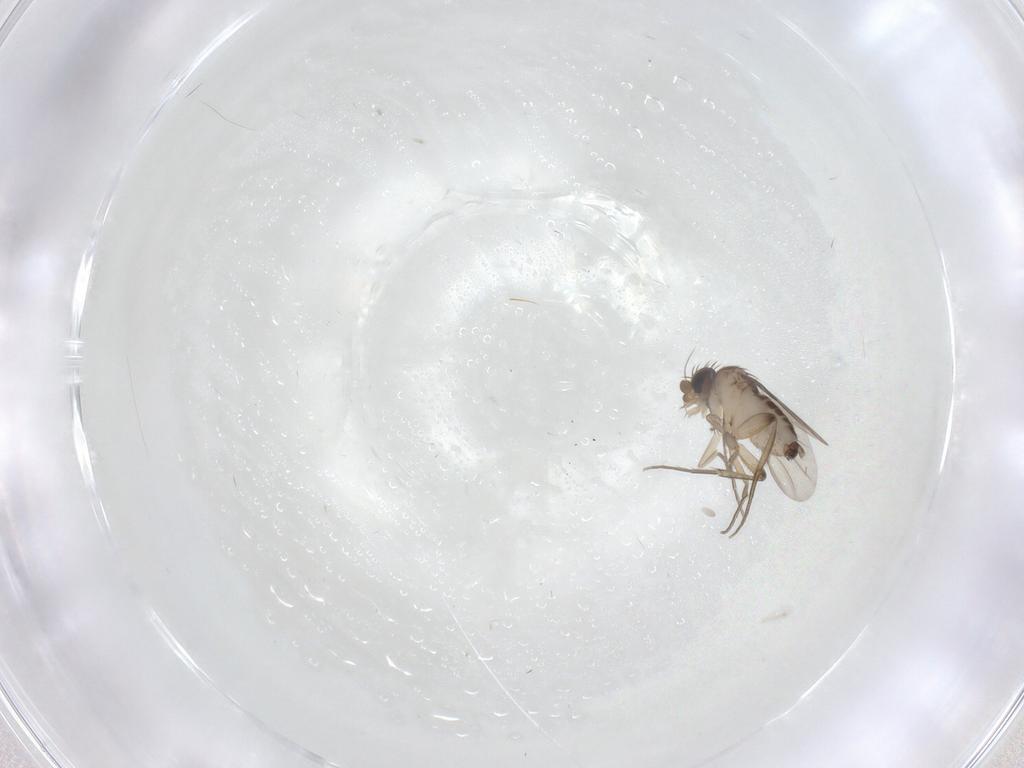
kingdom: Animalia
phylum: Arthropoda
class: Insecta
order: Diptera
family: Phoridae
